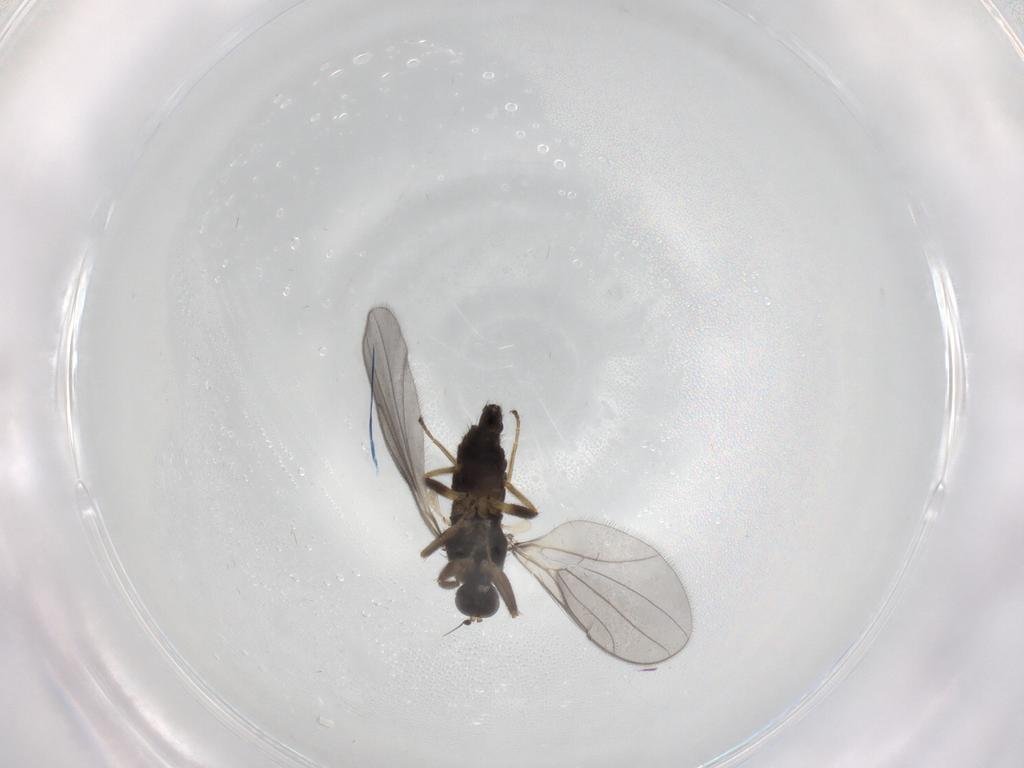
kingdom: Animalia
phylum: Arthropoda
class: Insecta
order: Diptera
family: Hybotidae
